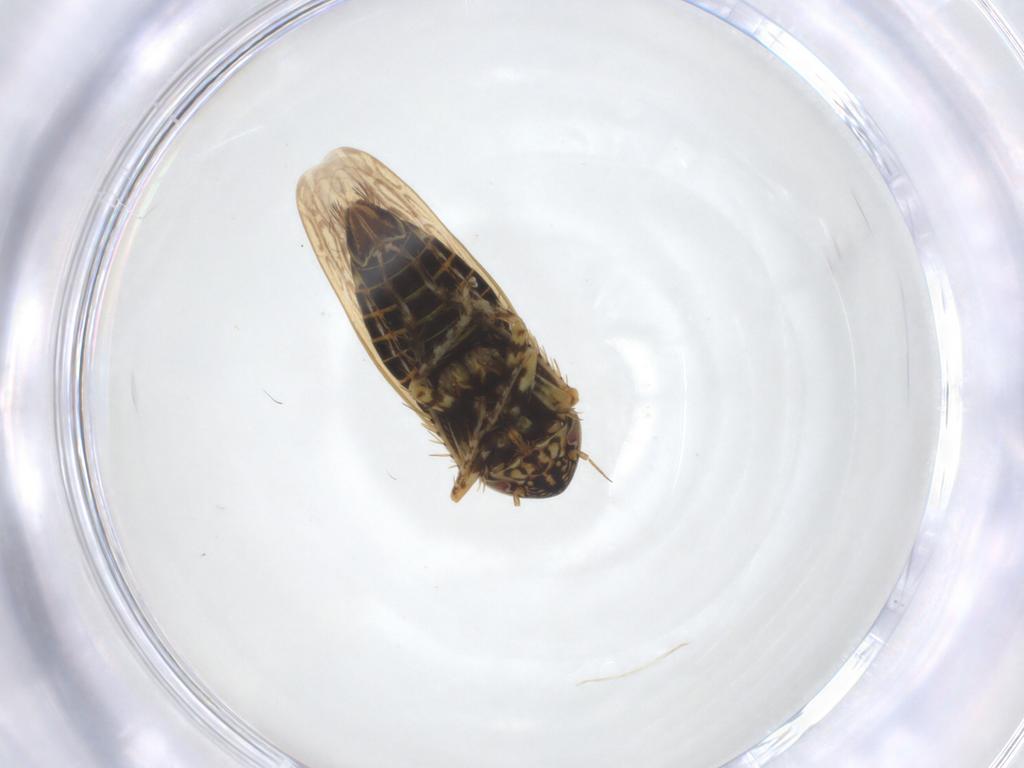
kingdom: Animalia
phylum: Arthropoda
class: Insecta
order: Hemiptera
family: Cicadellidae
